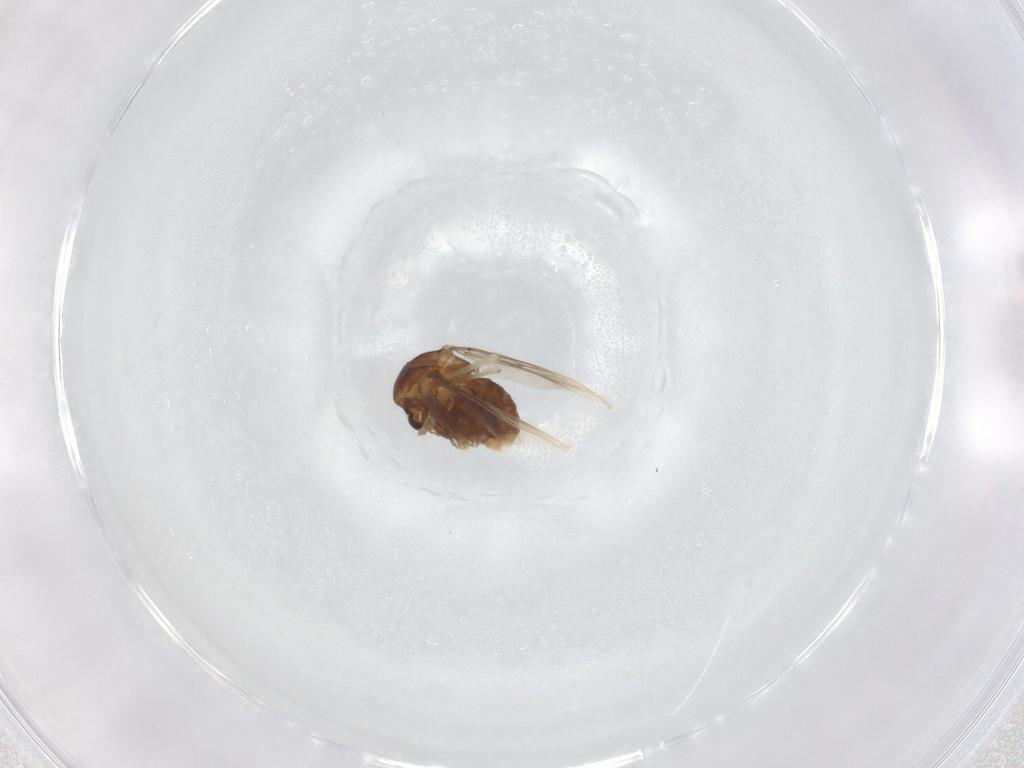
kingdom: Animalia
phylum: Arthropoda
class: Insecta
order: Diptera
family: Chironomidae
